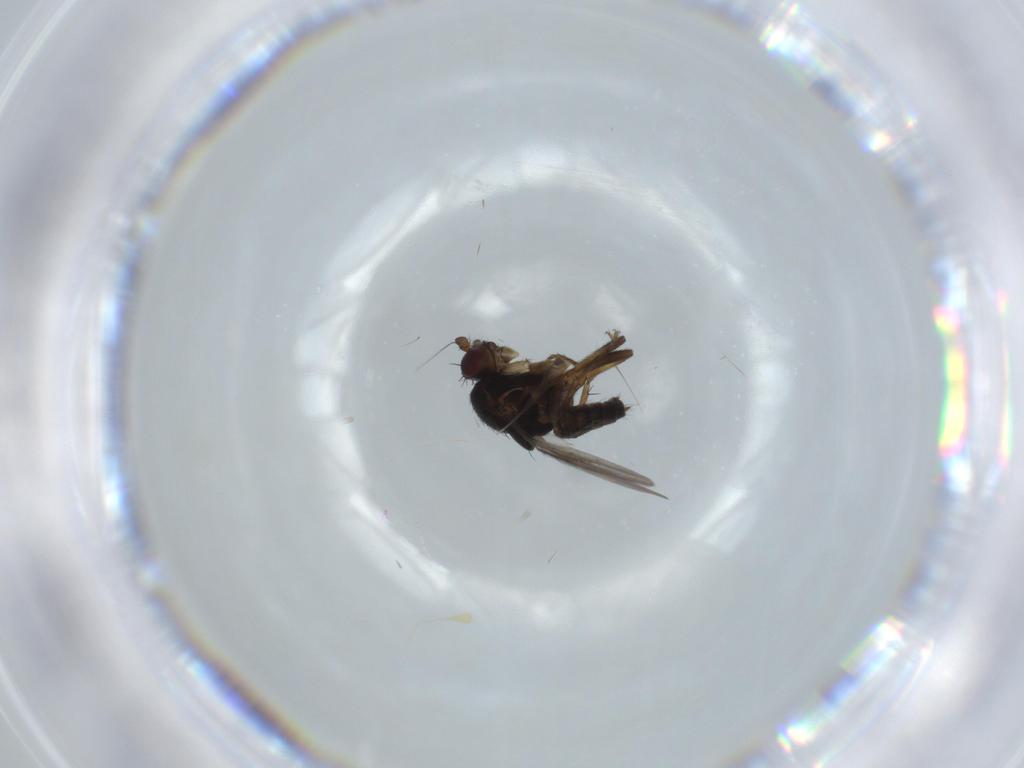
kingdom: Animalia
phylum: Arthropoda
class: Insecta
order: Diptera
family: Sphaeroceridae
